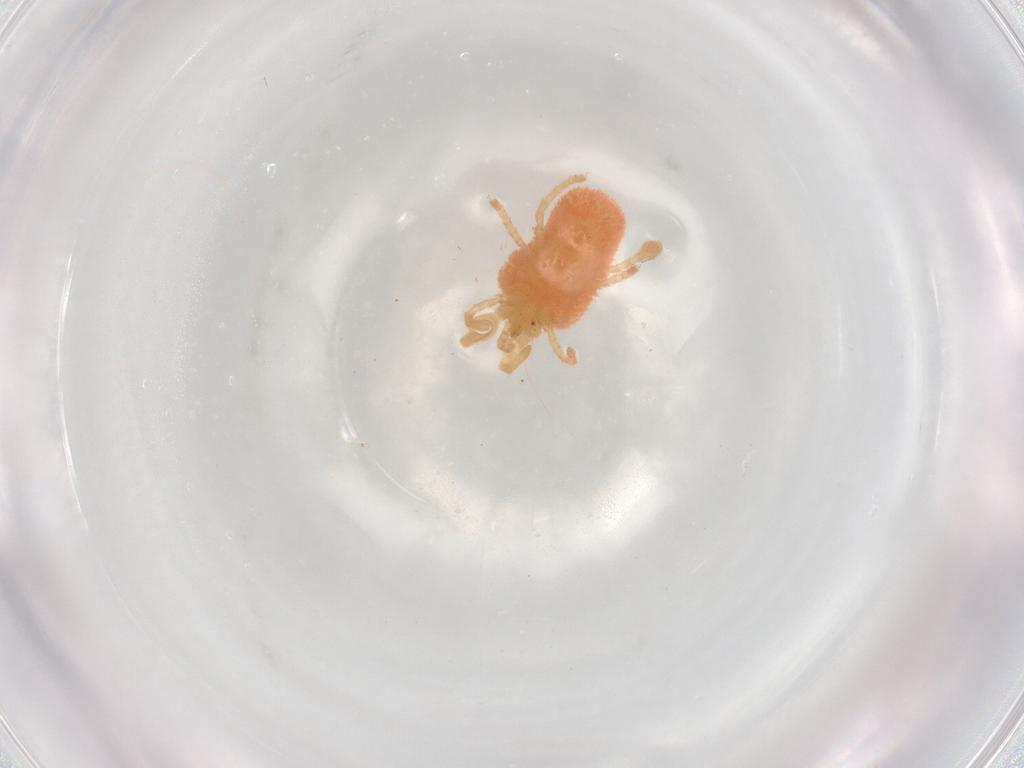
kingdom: Animalia
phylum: Arthropoda
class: Arachnida
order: Trombidiformes
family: Trombidiidae
